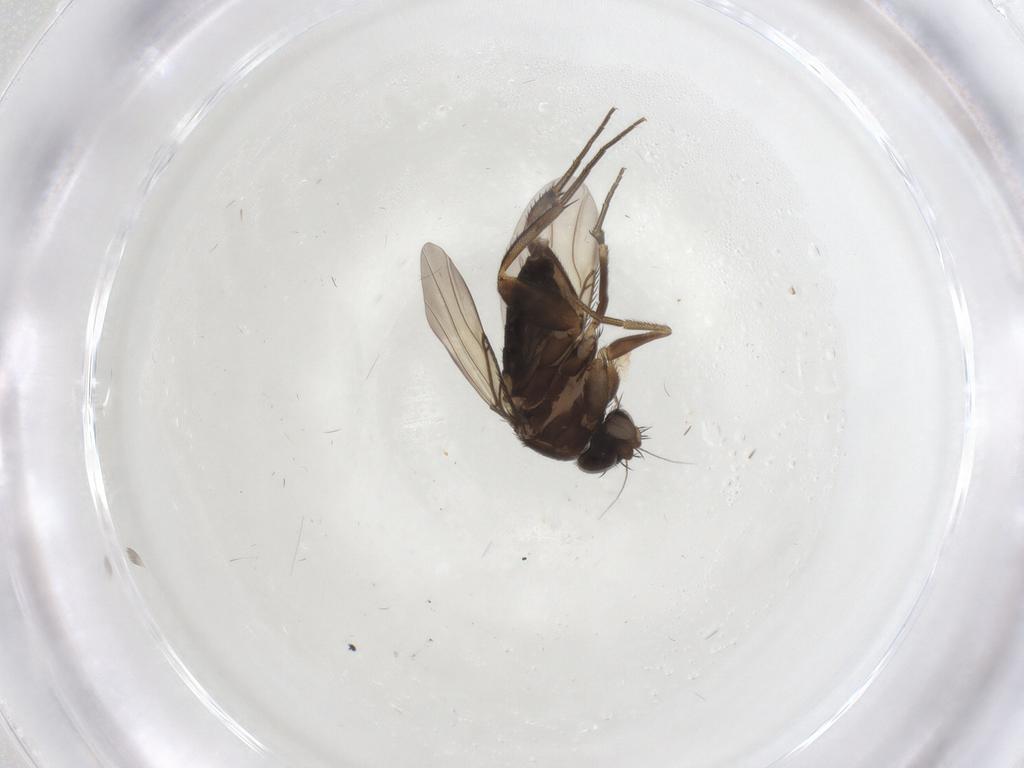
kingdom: Animalia
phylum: Arthropoda
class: Insecta
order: Diptera
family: Phoridae
